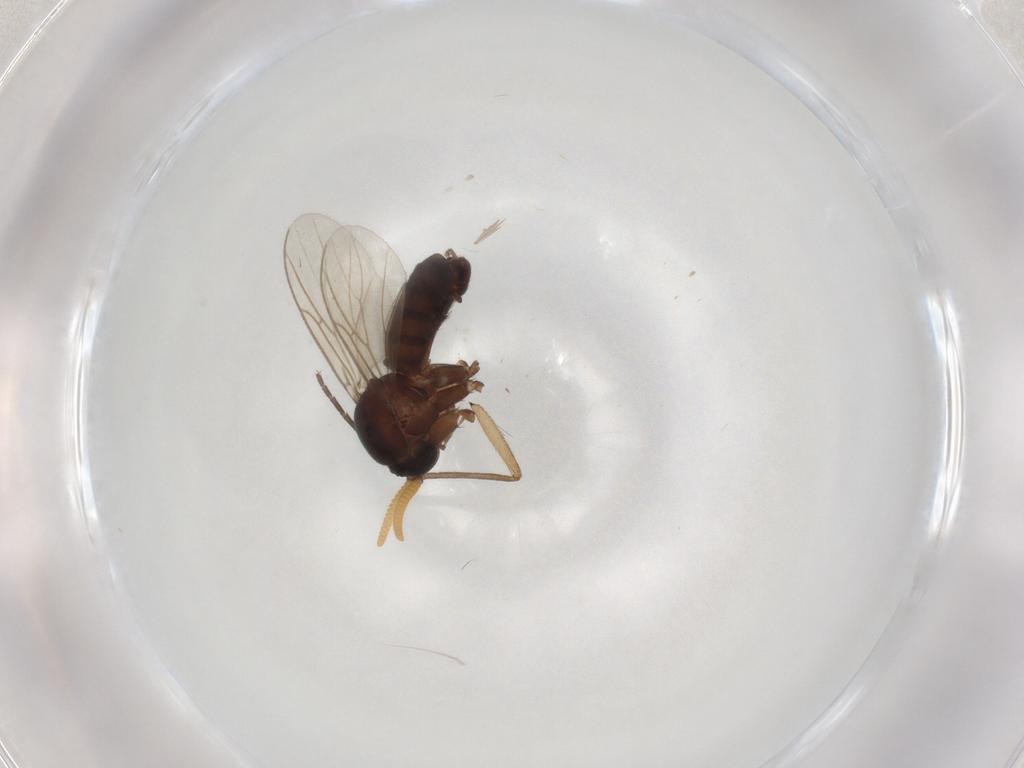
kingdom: Animalia
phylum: Arthropoda
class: Insecta
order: Diptera
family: Mycetophilidae
